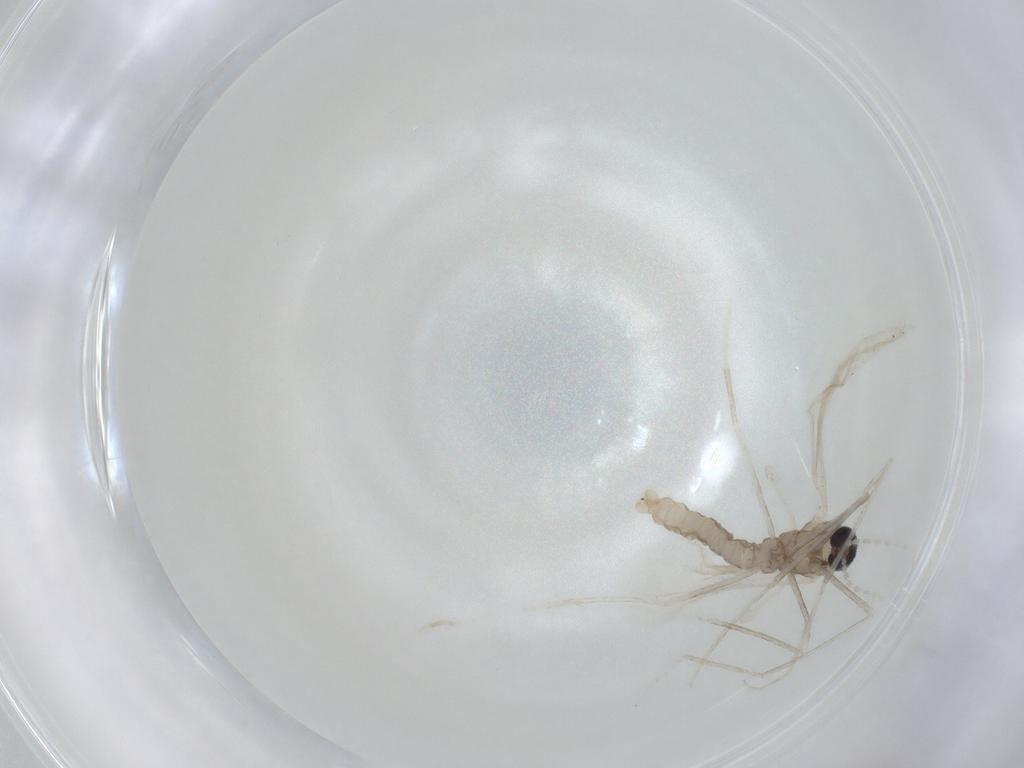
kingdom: Animalia
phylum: Arthropoda
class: Insecta
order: Diptera
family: Cecidomyiidae
